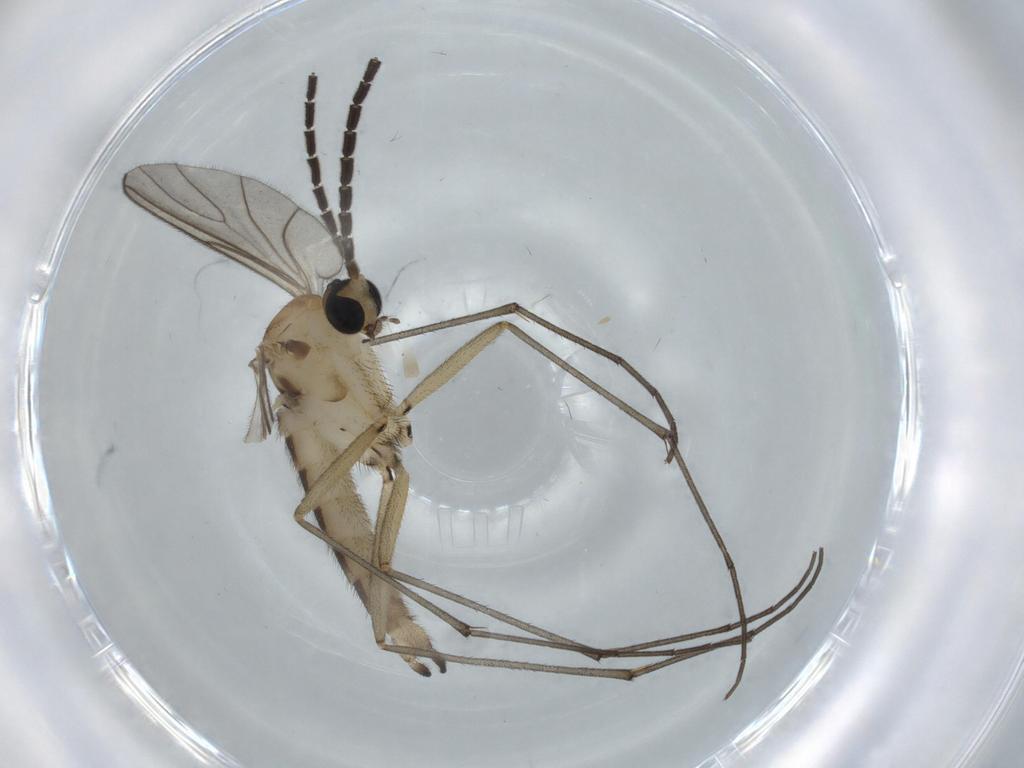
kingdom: Animalia
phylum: Arthropoda
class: Insecta
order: Diptera
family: Sciaridae
